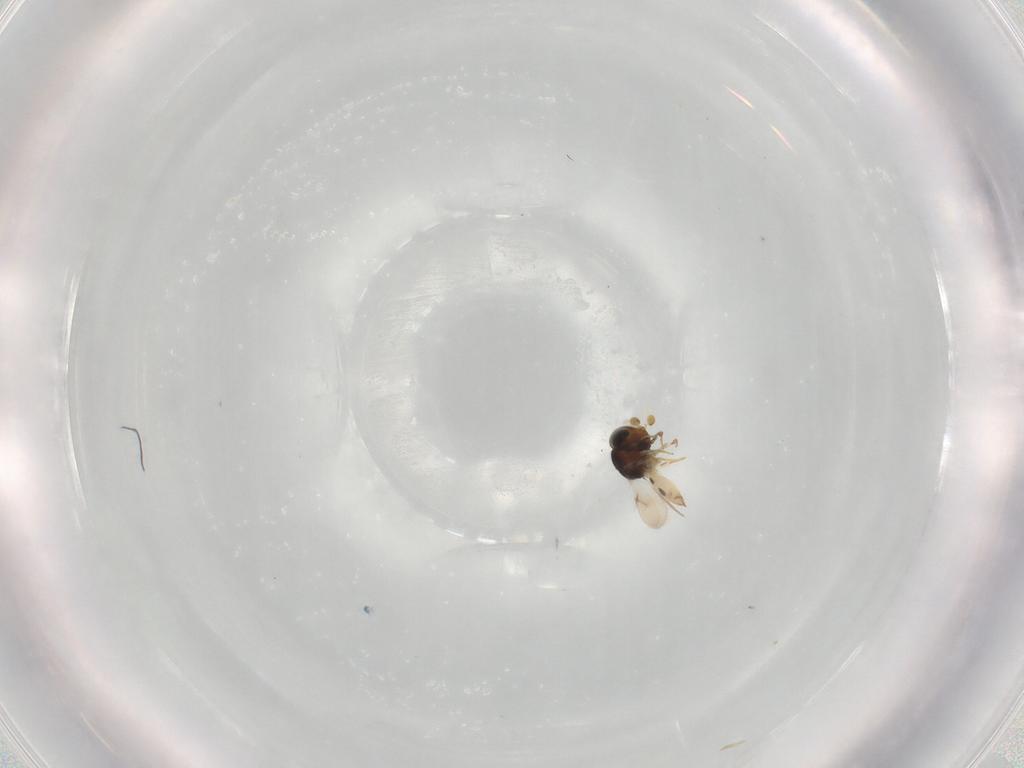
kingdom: Animalia
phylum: Arthropoda
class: Insecta
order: Hymenoptera
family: Scelionidae
